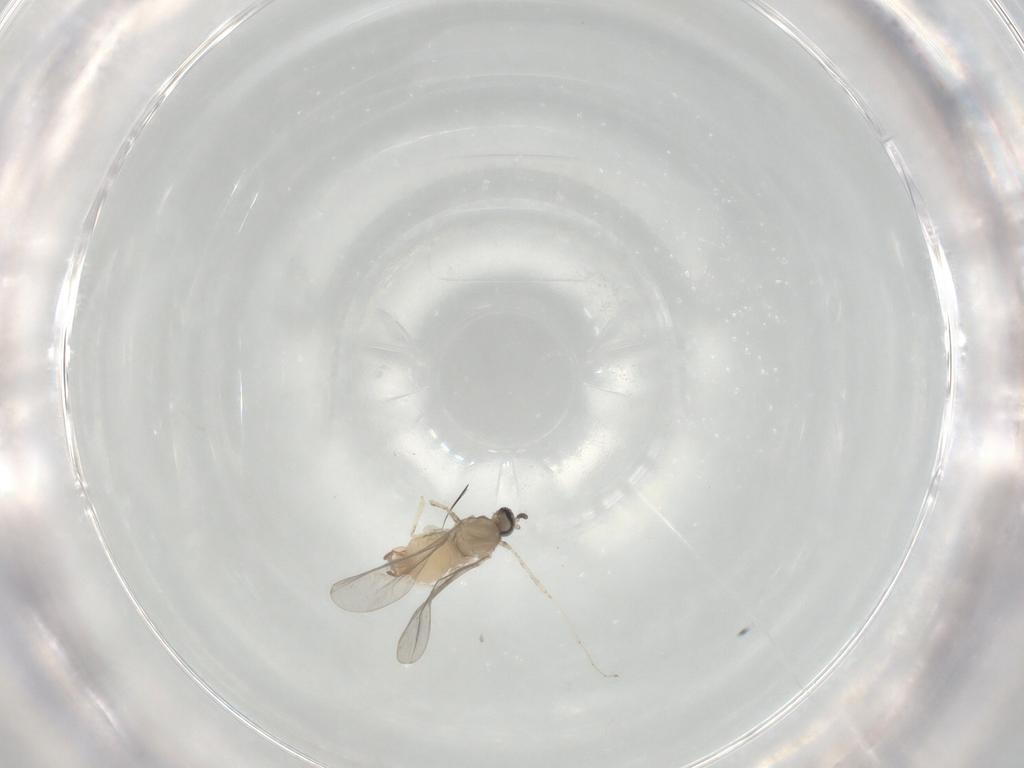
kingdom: Animalia
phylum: Arthropoda
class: Insecta
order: Diptera
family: Cecidomyiidae
